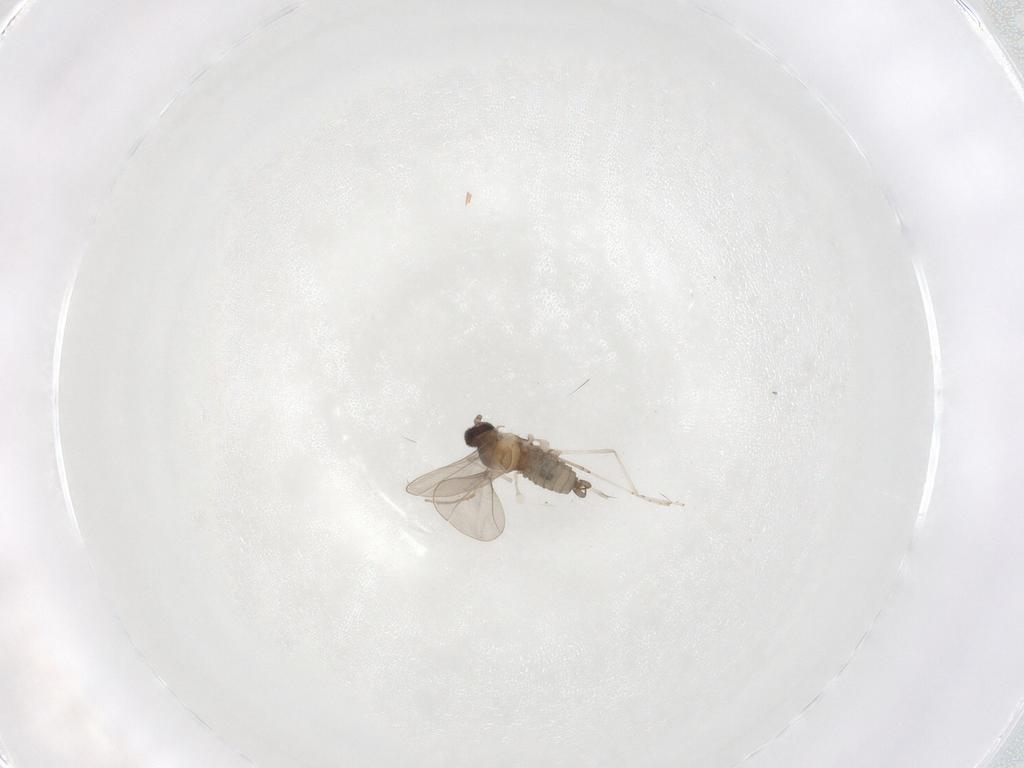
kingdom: Animalia
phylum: Arthropoda
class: Insecta
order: Diptera
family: Cecidomyiidae
